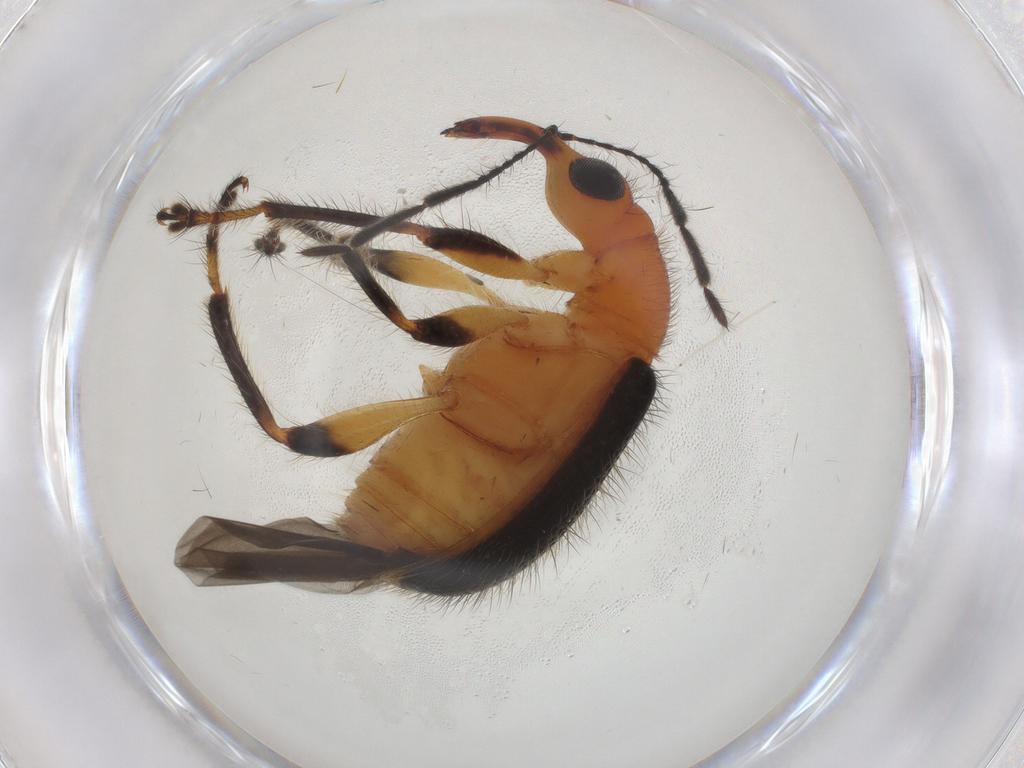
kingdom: Animalia
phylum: Arthropoda
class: Insecta
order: Coleoptera
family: Attelabidae
